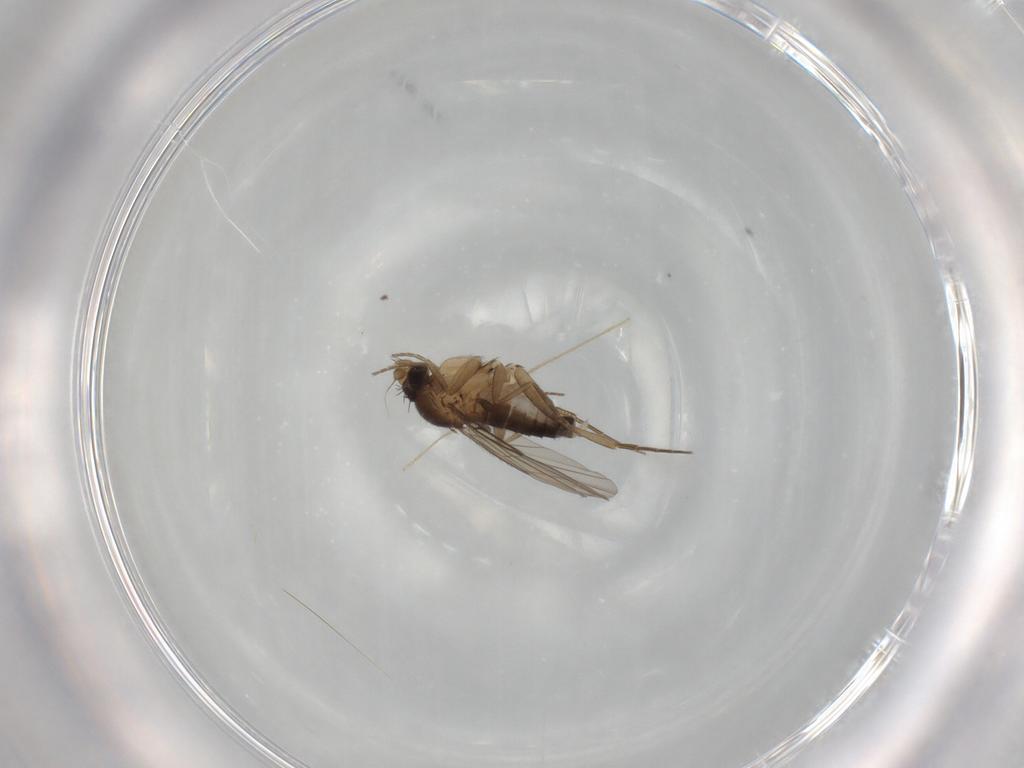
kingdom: Animalia
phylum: Arthropoda
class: Insecta
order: Diptera
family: Phoridae
